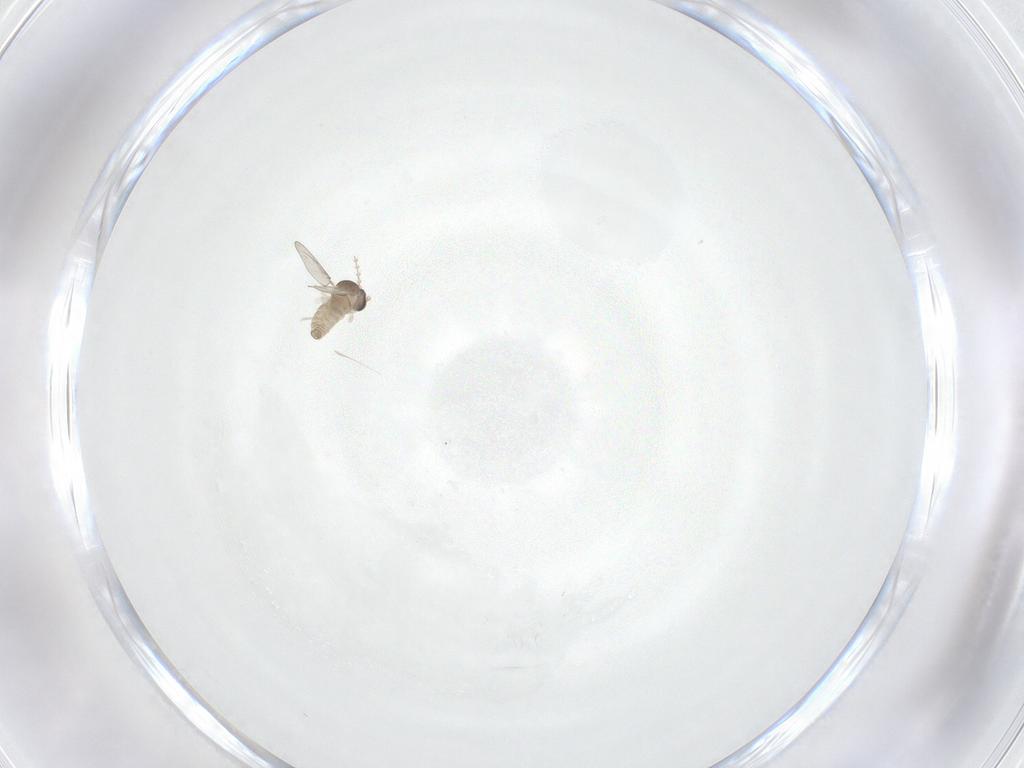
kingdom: Animalia
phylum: Arthropoda
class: Insecta
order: Diptera
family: Cecidomyiidae
